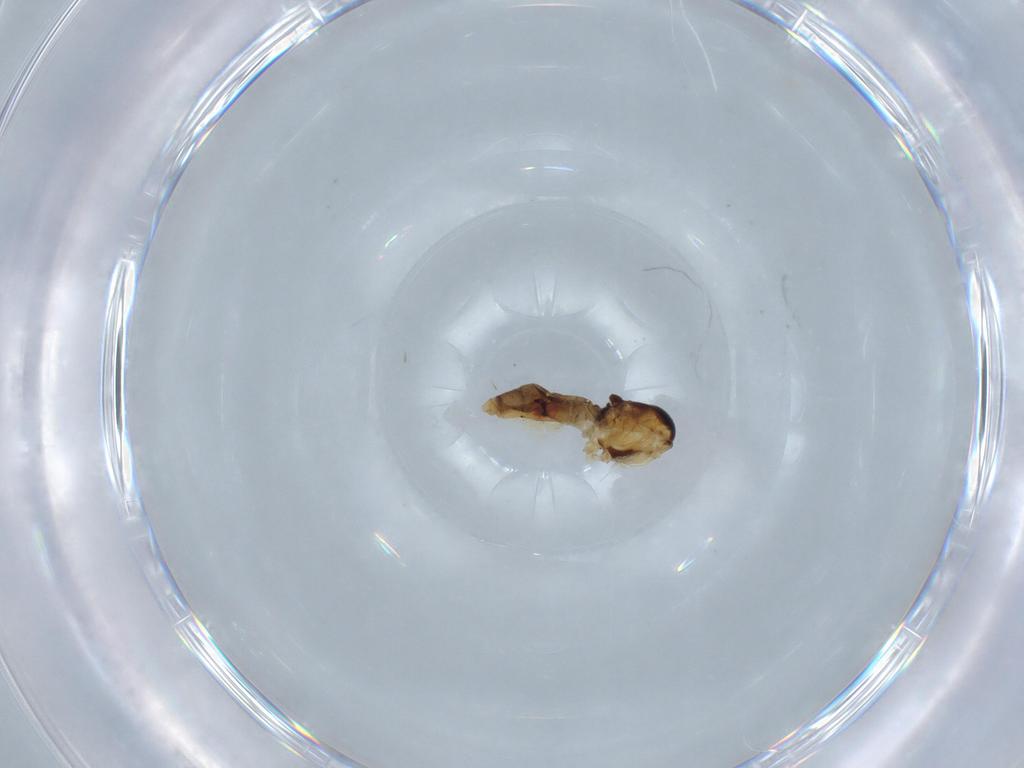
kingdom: Animalia
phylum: Arthropoda
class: Insecta
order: Diptera
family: Chloropidae
